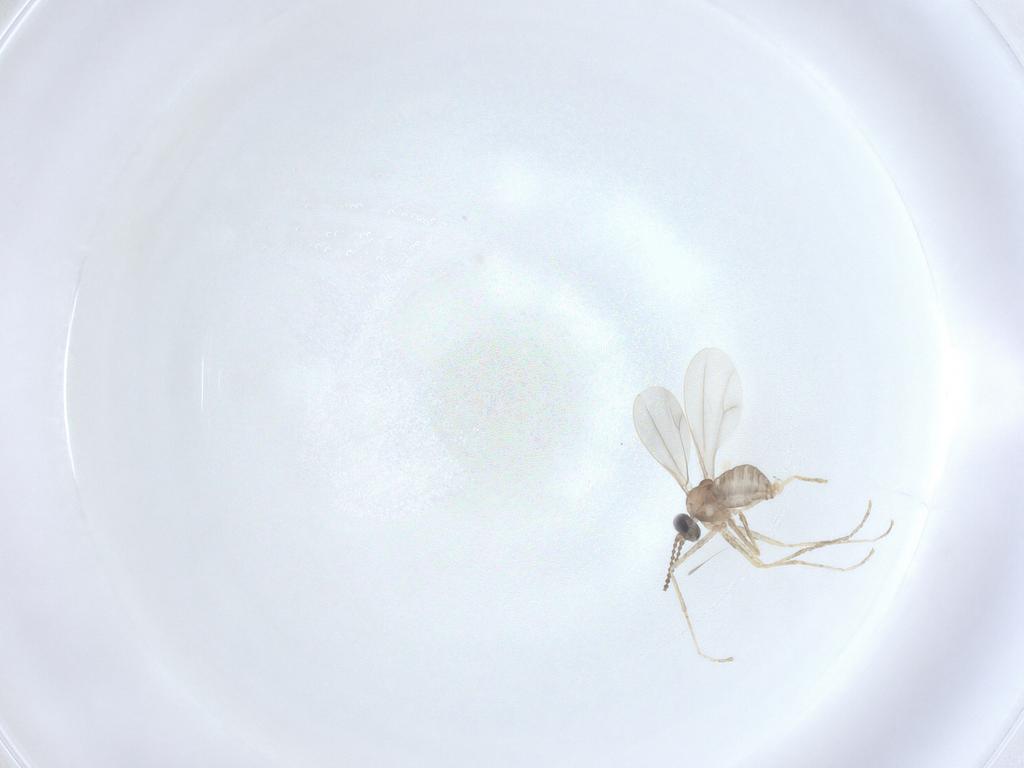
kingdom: Animalia
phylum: Arthropoda
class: Insecta
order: Diptera
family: Cecidomyiidae
